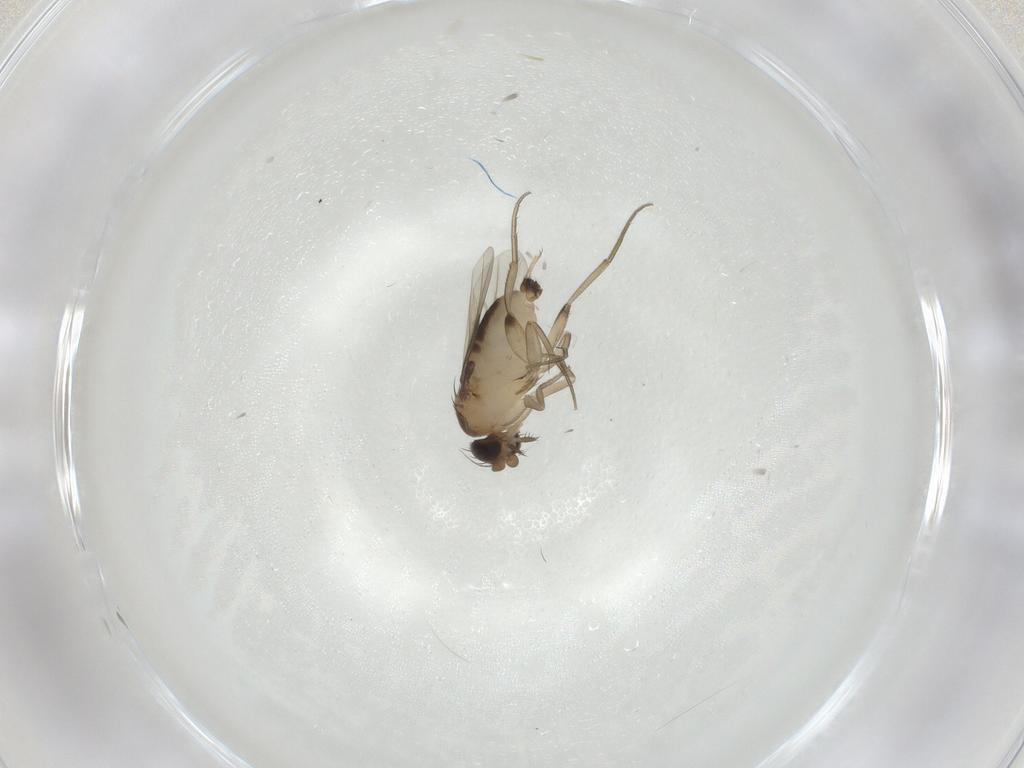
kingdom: Animalia
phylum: Arthropoda
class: Insecta
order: Diptera
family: Phoridae
